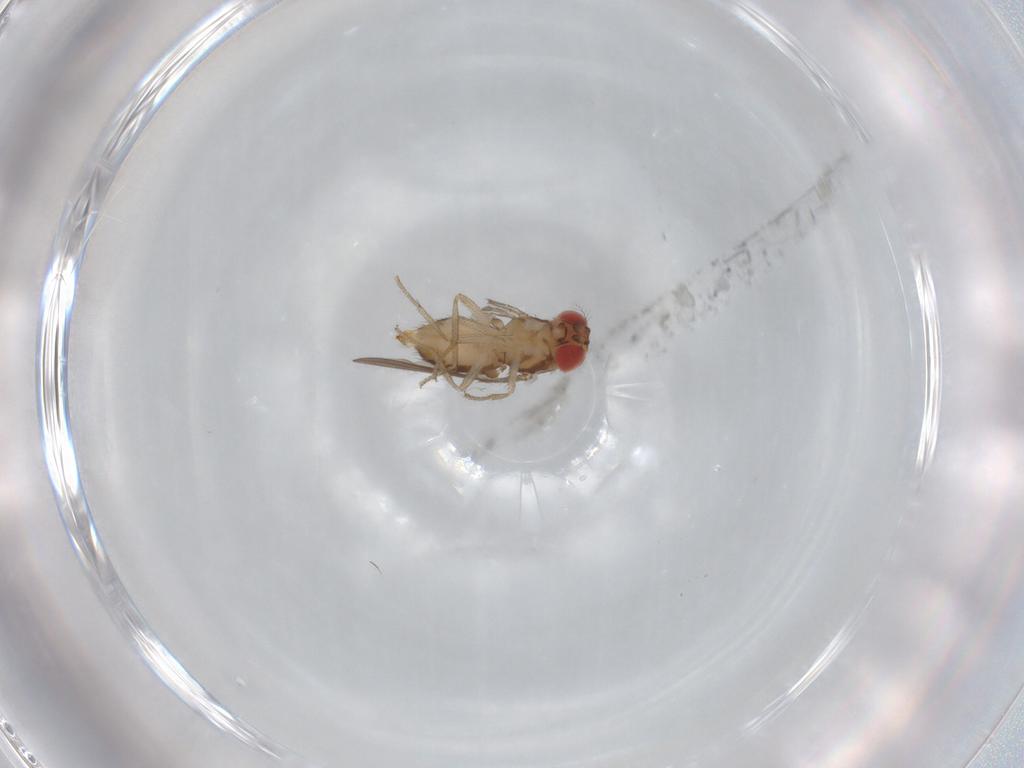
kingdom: Animalia
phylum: Arthropoda
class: Insecta
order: Diptera
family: Drosophilidae
